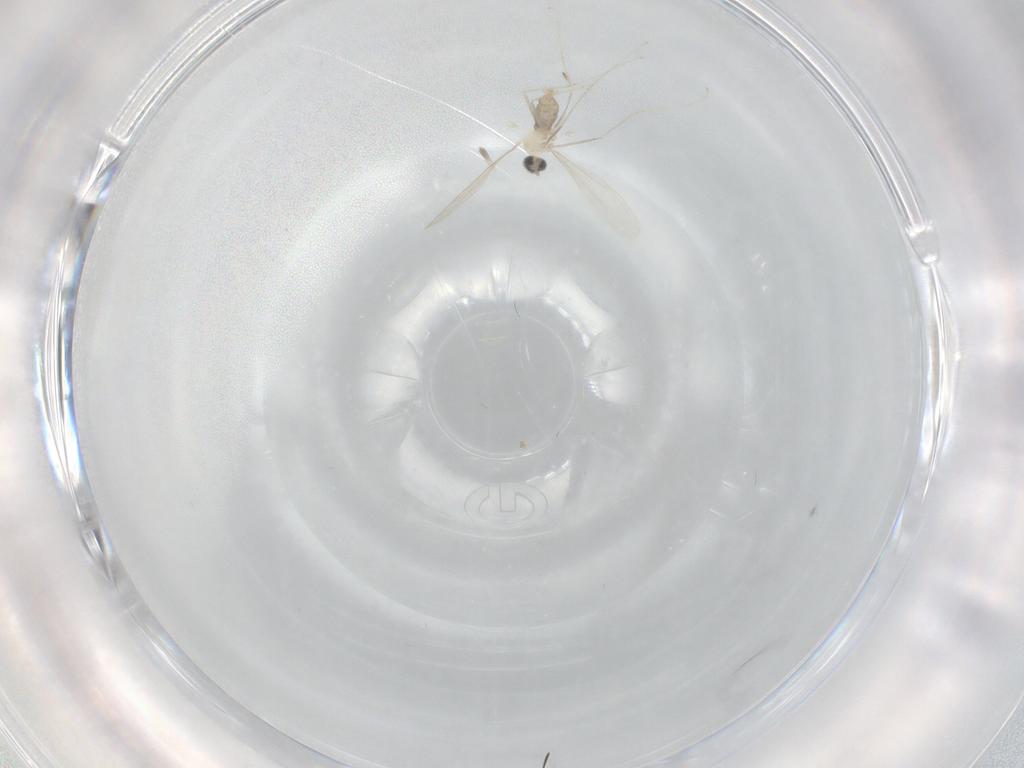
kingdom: Animalia
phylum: Arthropoda
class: Insecta
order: Diptera
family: Cecidomyiidae
